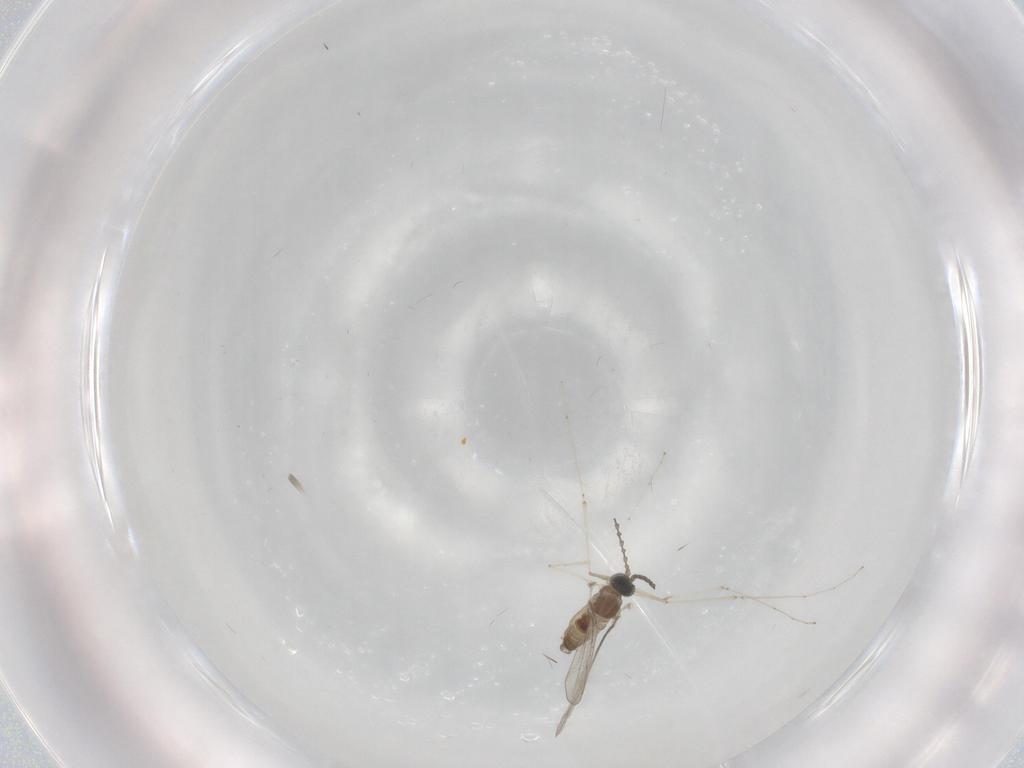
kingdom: Animalia
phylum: Arthropoda
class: Insecta
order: Diptera
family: Cecidomyiidae
